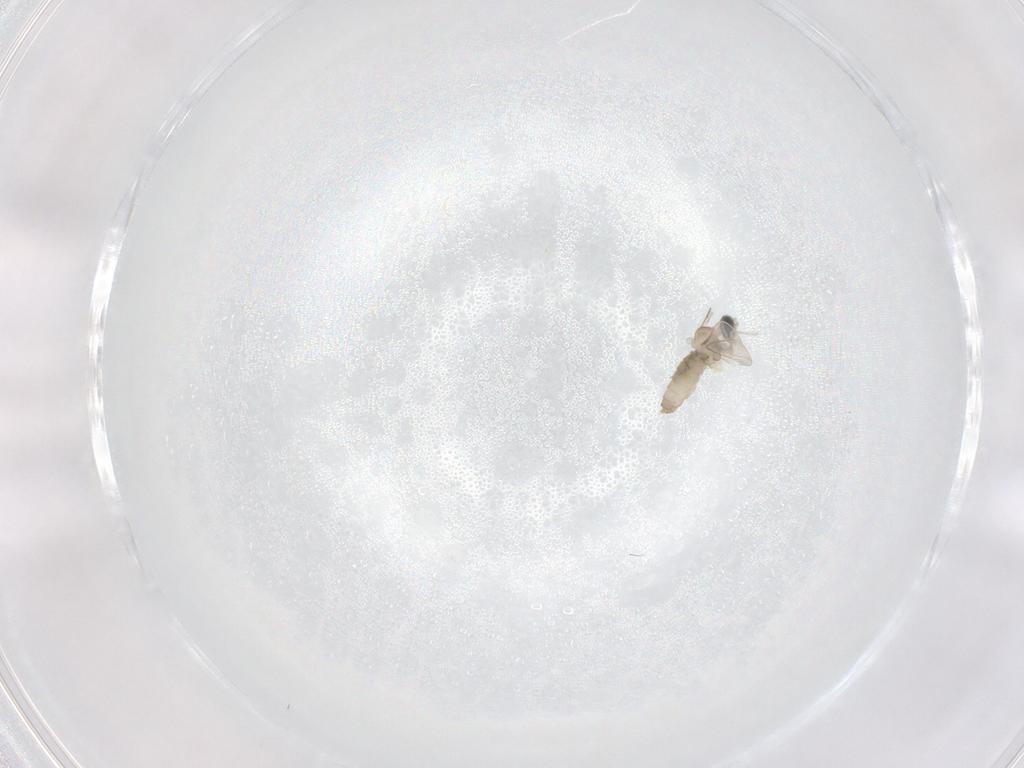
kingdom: Animalia
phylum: Arthropoda
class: Insecta
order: Diptera
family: Cecidomyiidae
